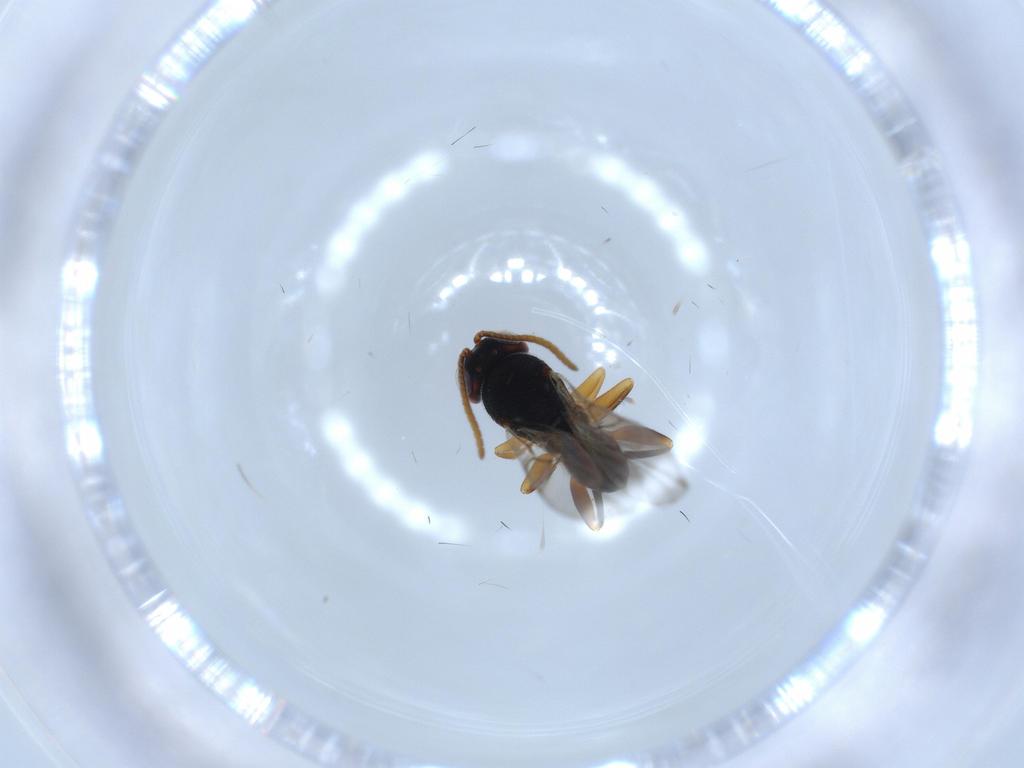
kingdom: Animalia
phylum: Arthropoda
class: Insecta
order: Hymenoptera
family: Cynipidae
